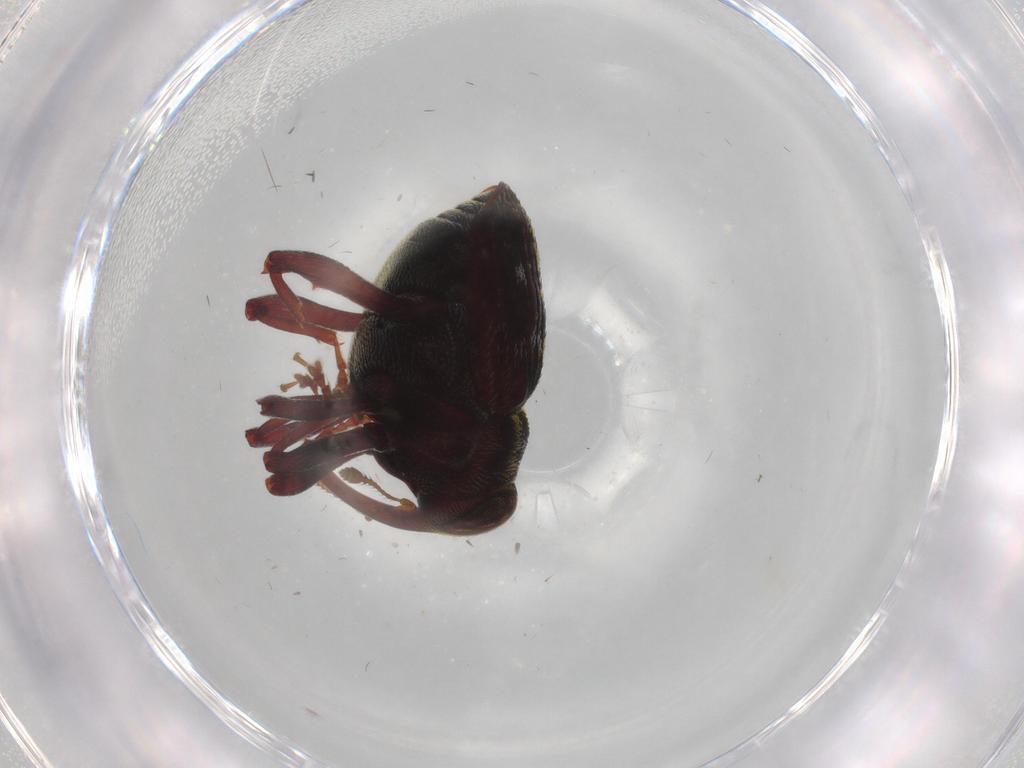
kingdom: Animalia
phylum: Arthropoda
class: Insecta
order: Coleoptera
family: Curculionidae
